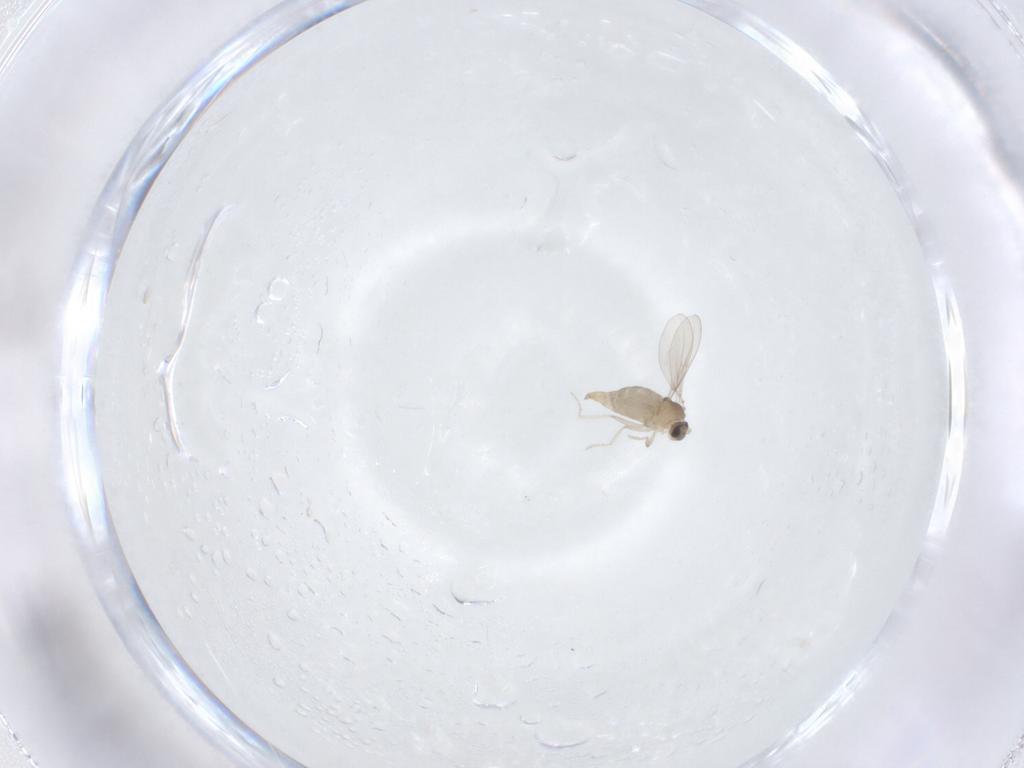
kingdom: Animalia
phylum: Arthropoda
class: Insecta
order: Diptera
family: Cecidomyiidae
